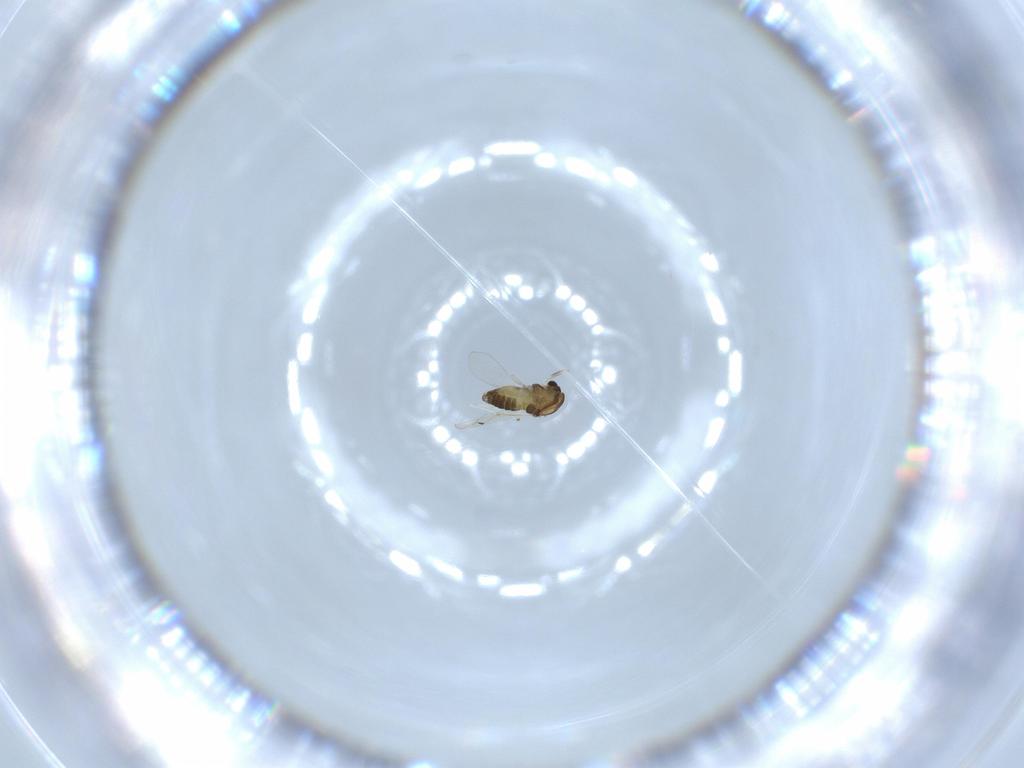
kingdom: Animalia
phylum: Arthropoda
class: Insecta
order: Diptera
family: Chironomidae
